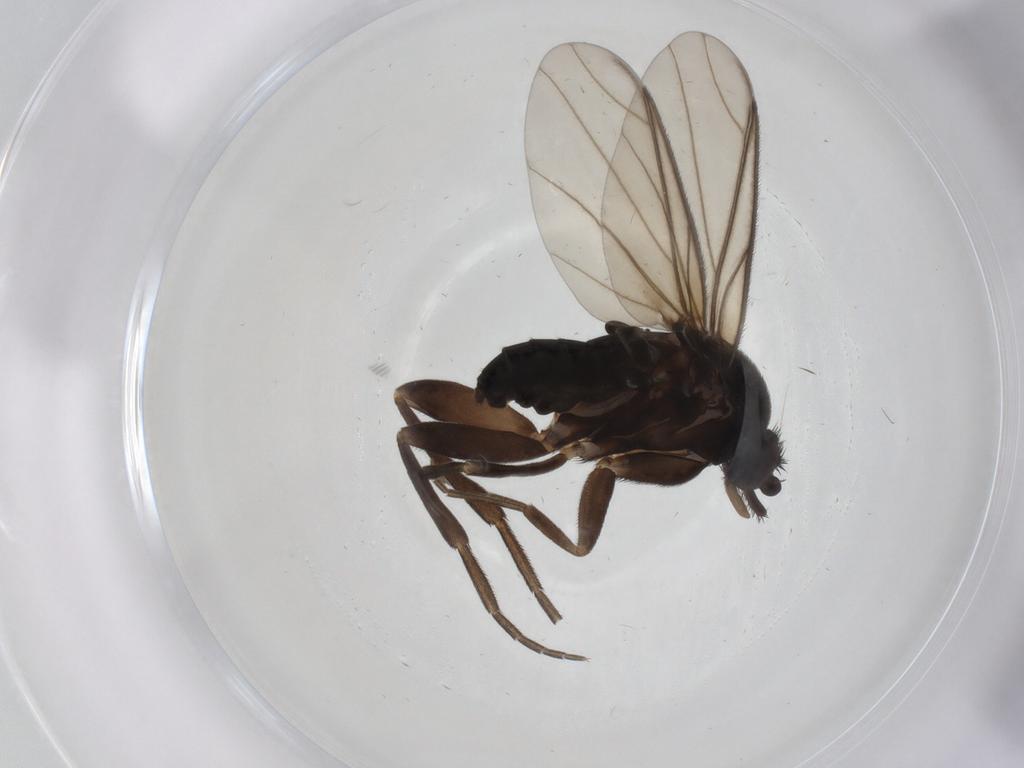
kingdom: Animalia
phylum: Arthropoda
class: Insecta
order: Diptera
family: Phoridae
